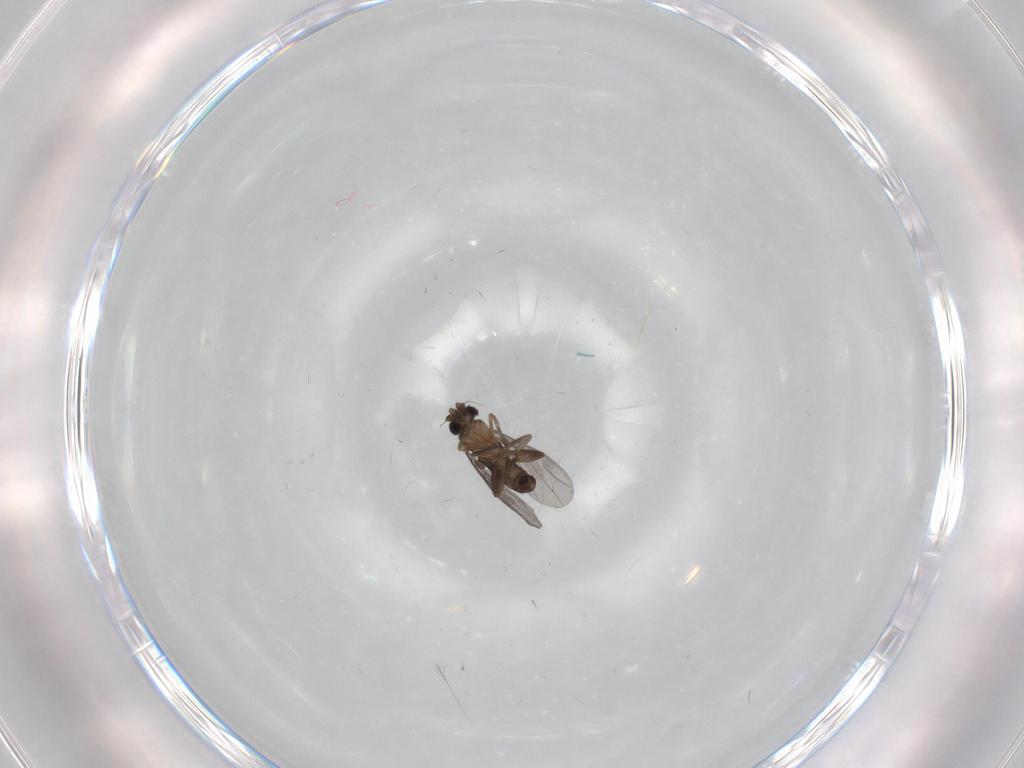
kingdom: Animalia
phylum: Arthropoda
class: Insecta
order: Diptera
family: Psychodidae
